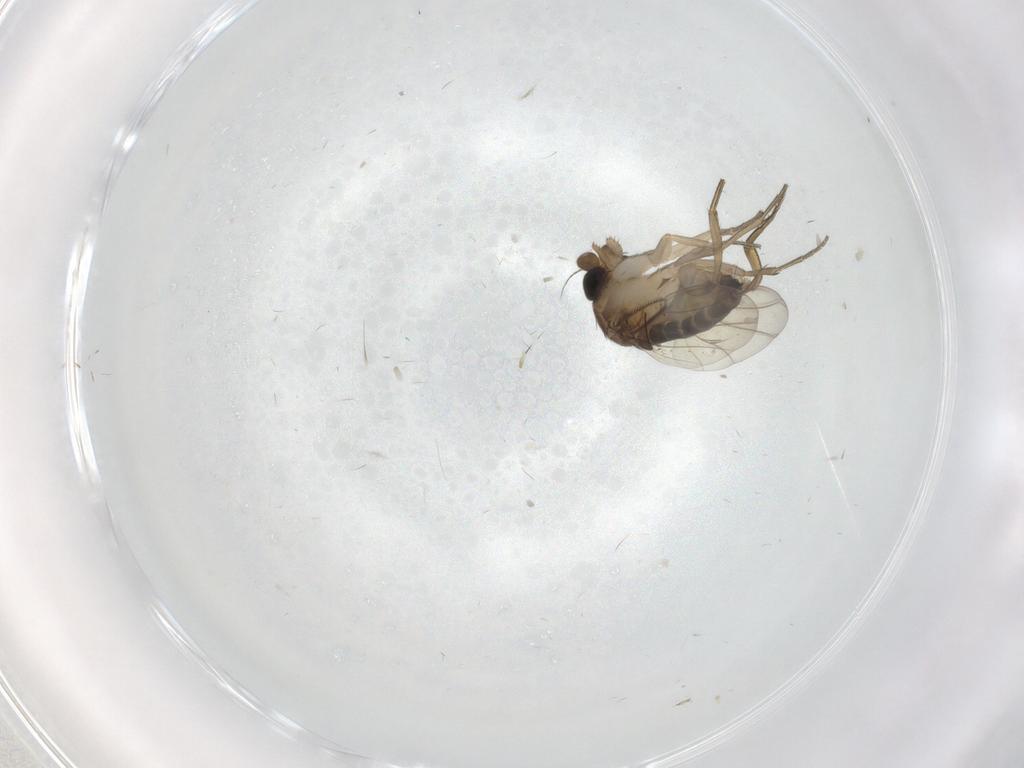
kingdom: Animalia
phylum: Arthropoda
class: Insecta
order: Diptera
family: Phoridae
